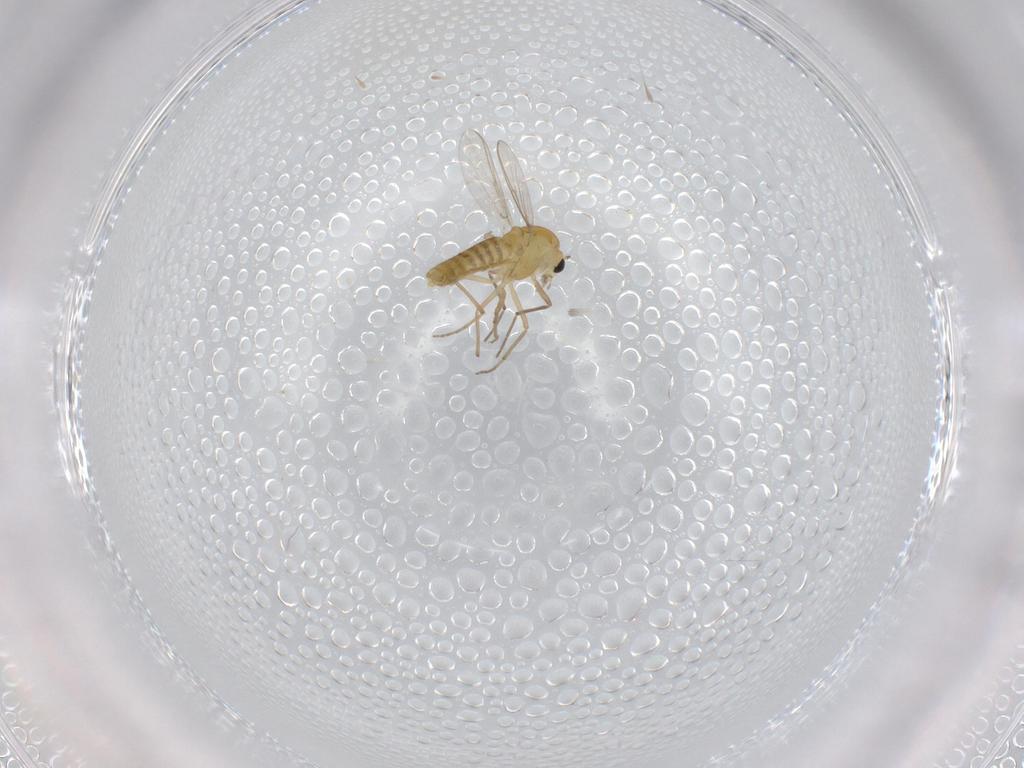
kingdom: Animalia
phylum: Arthropoda
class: Insecta
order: Diptera
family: Chironomidae
